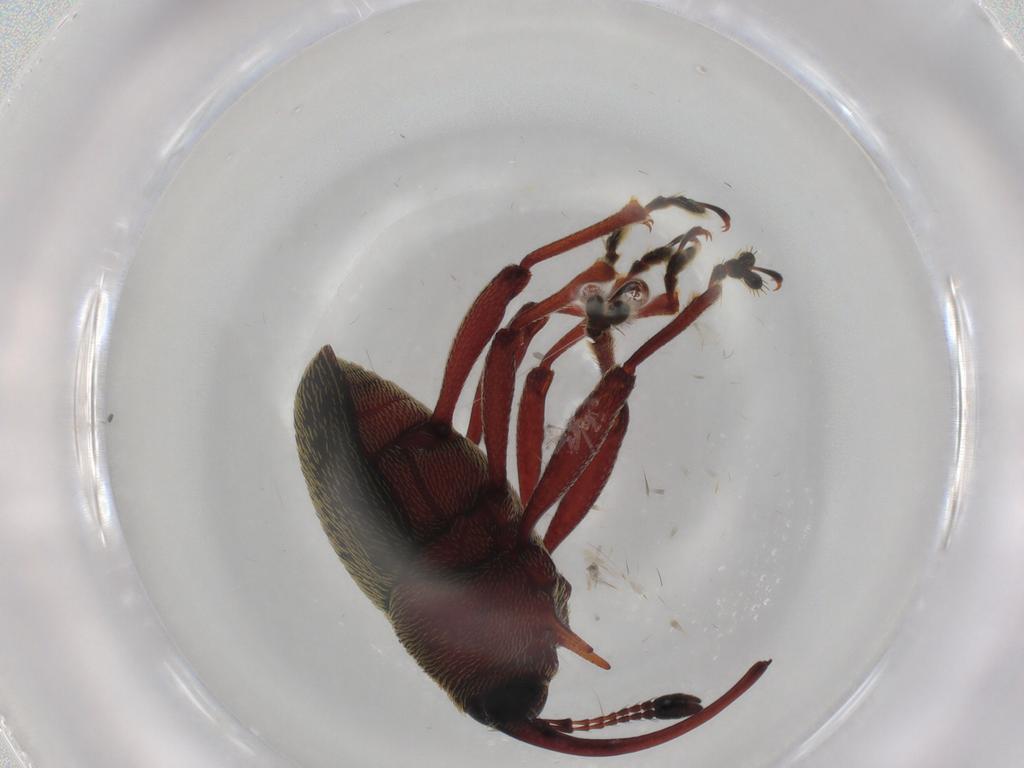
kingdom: Animalia
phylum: Arthropoda
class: Insecta
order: Coleoptera
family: Curculionidae
